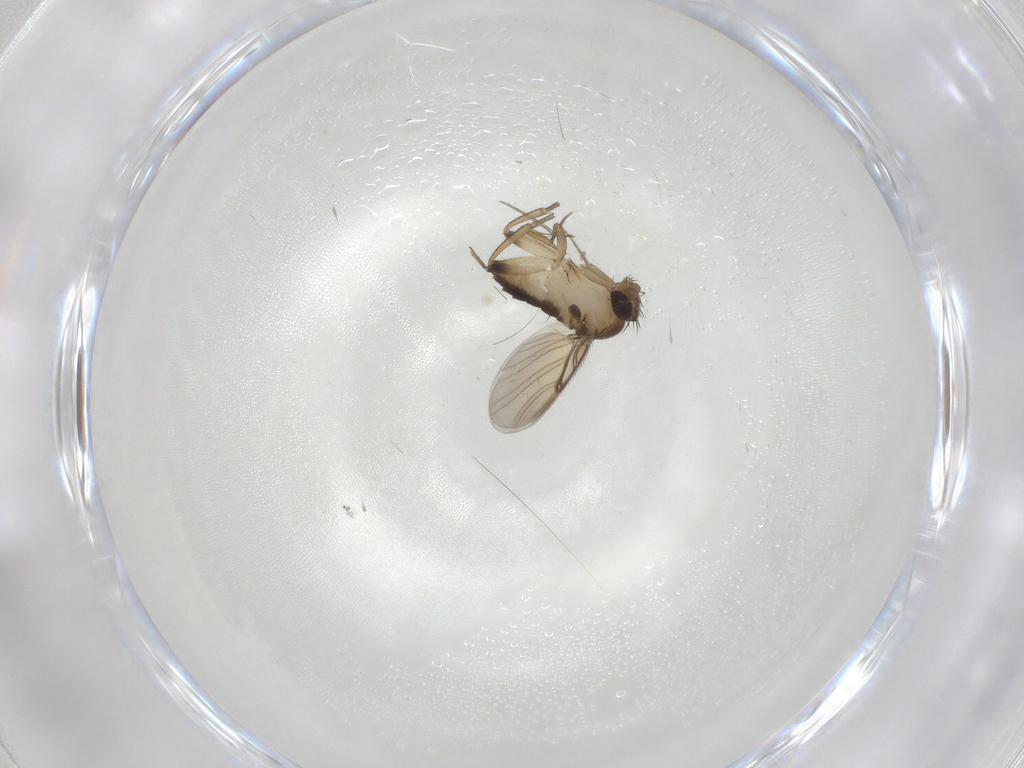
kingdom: Animalia
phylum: Arthropoda
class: Insecta
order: Diptera
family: Phoridae
